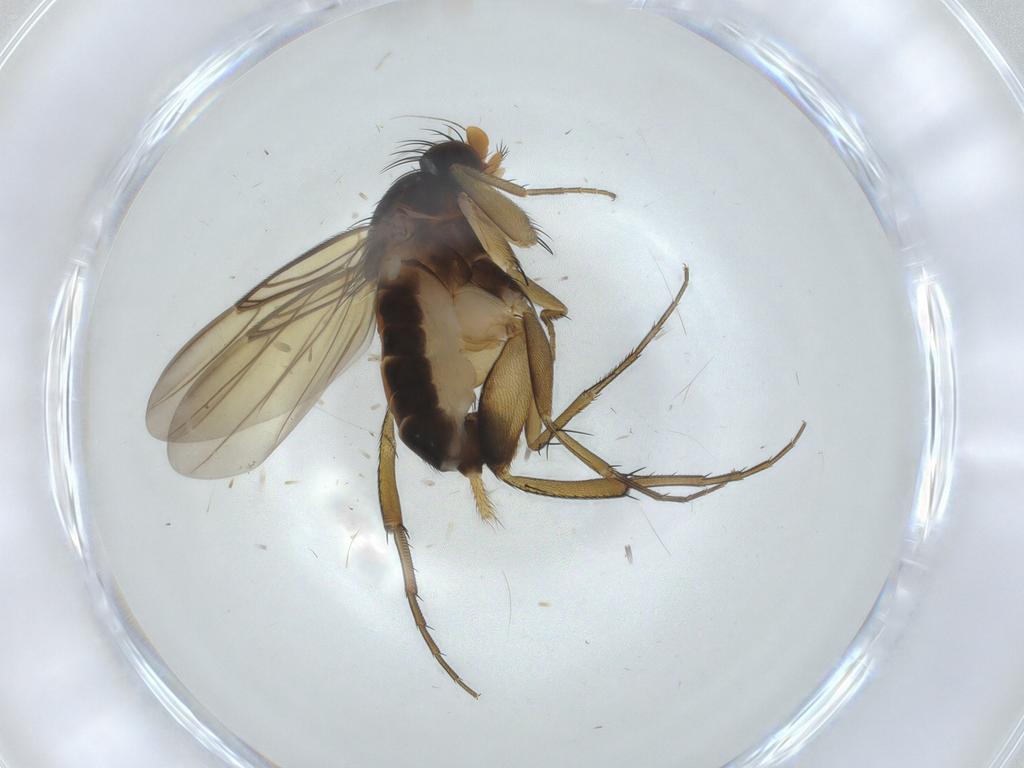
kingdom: Animalia
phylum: Arthropoda
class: Insecta
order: Diptera
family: Phoridae
